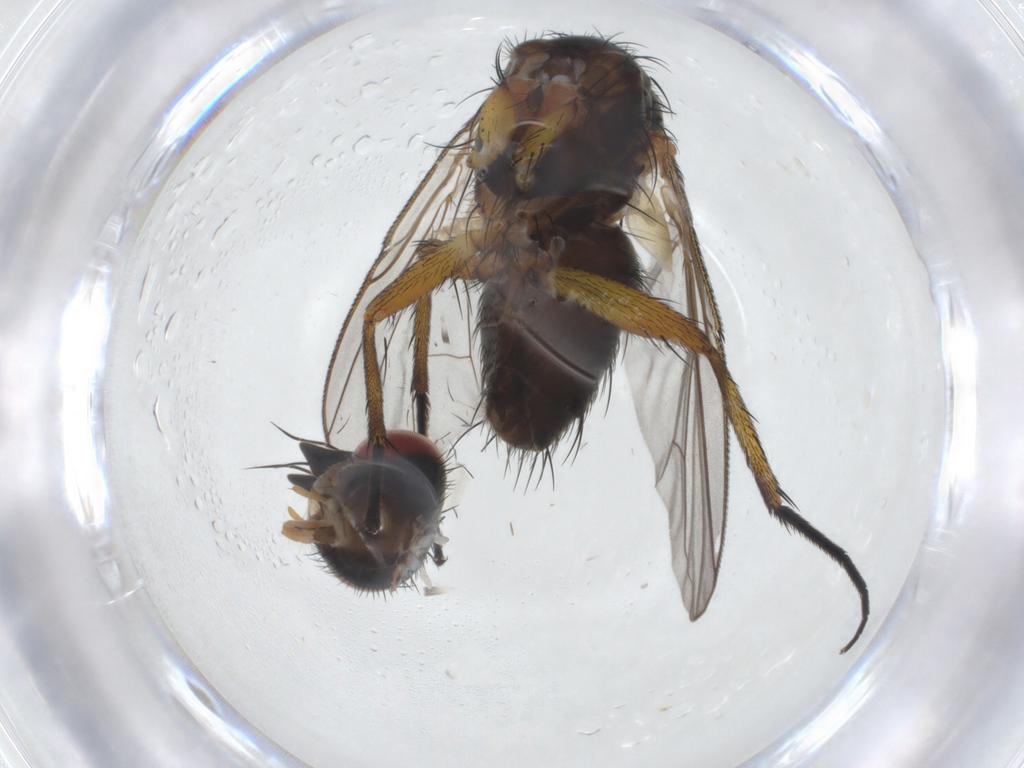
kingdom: Animalia
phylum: Arthropoda
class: Insecta
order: Diptera
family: Anthomyiidae
